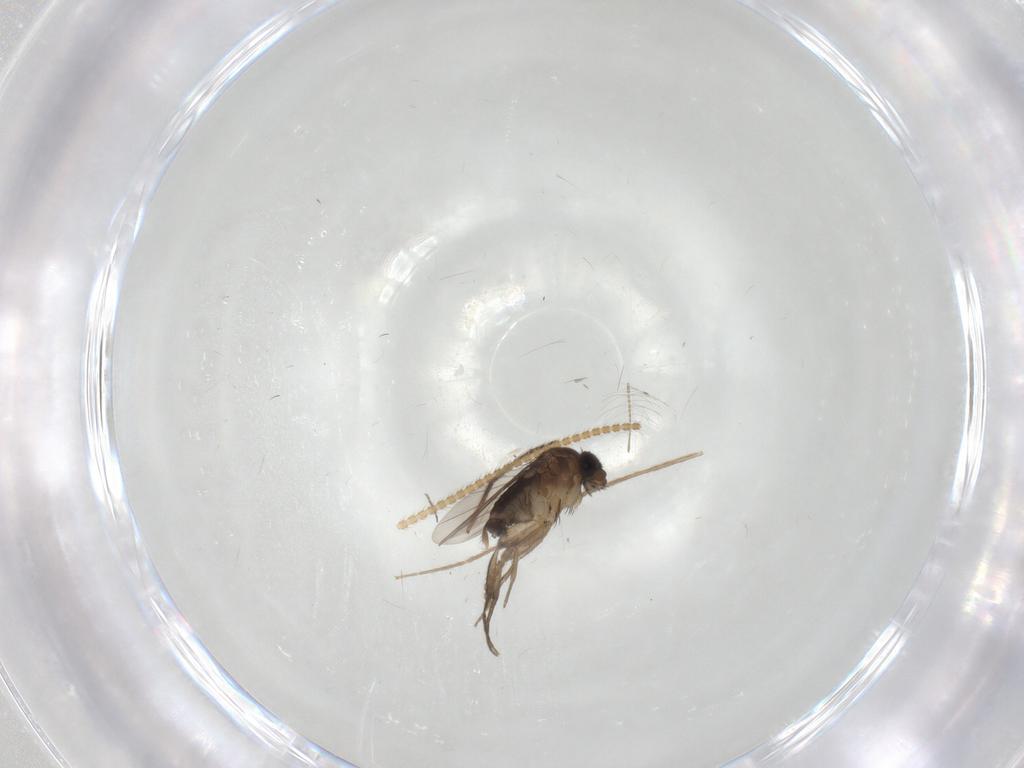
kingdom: Animalia
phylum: Arthropoda
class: Insecta
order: Diptera
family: Phoridae
